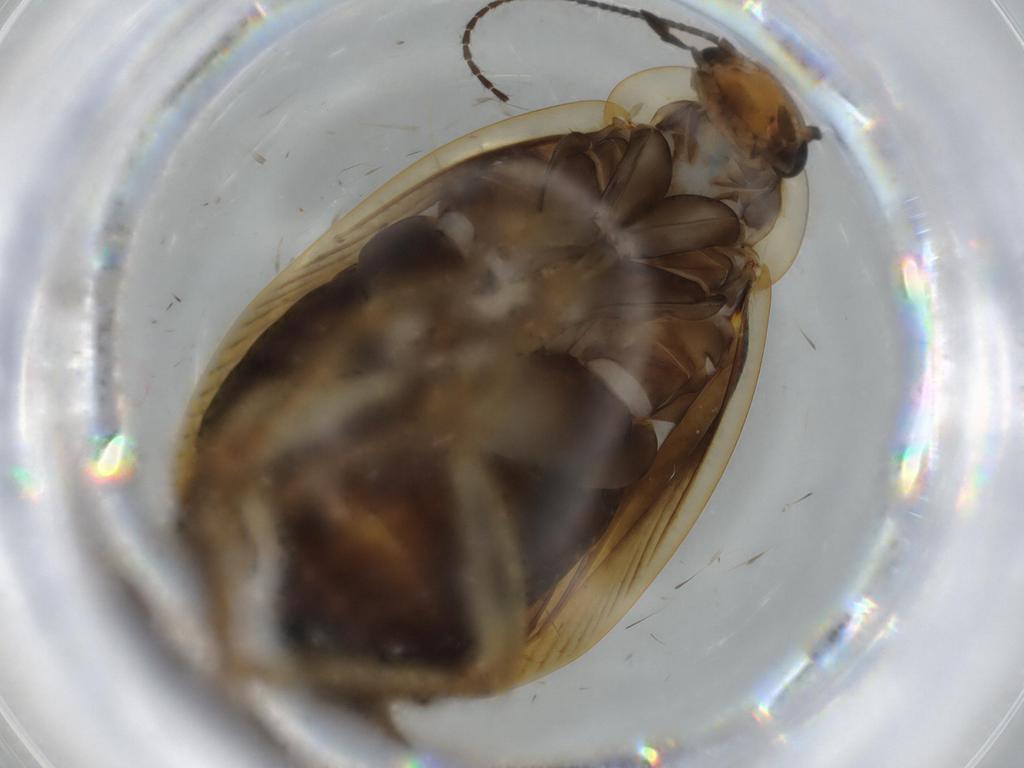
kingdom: Animalia
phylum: Arthropoda
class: Insecta
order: Blattodea
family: Ectobiidae
